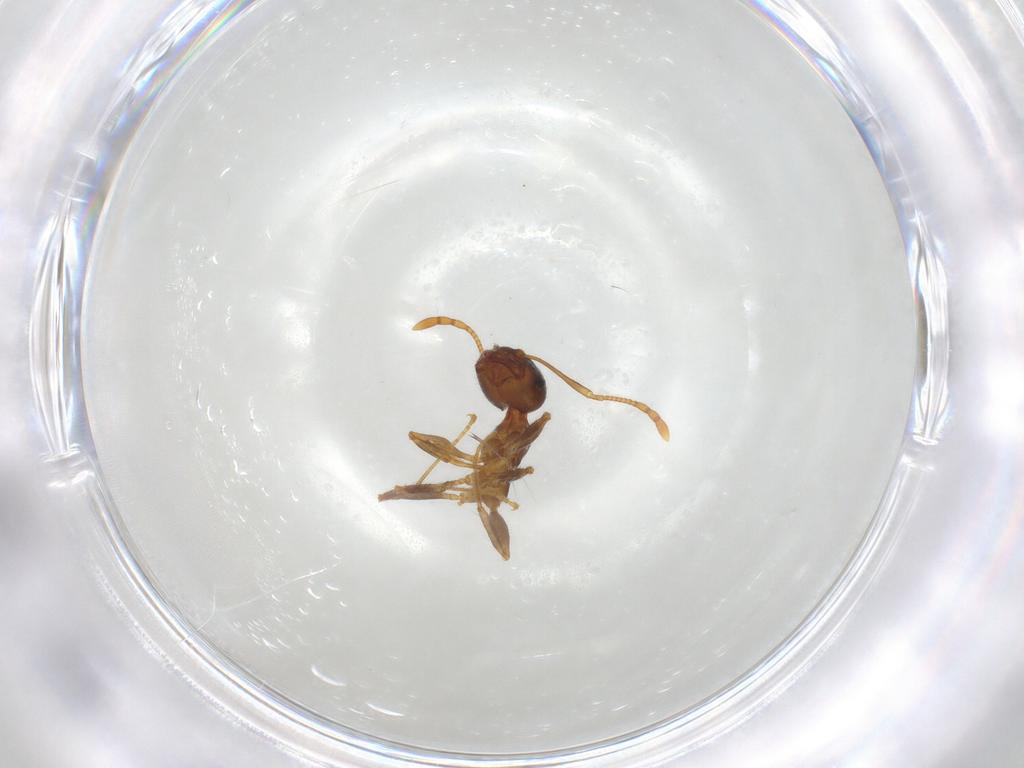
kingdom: Animalia
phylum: Arthropoda
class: Insecta
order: Hymenoptera
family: Formicidae
